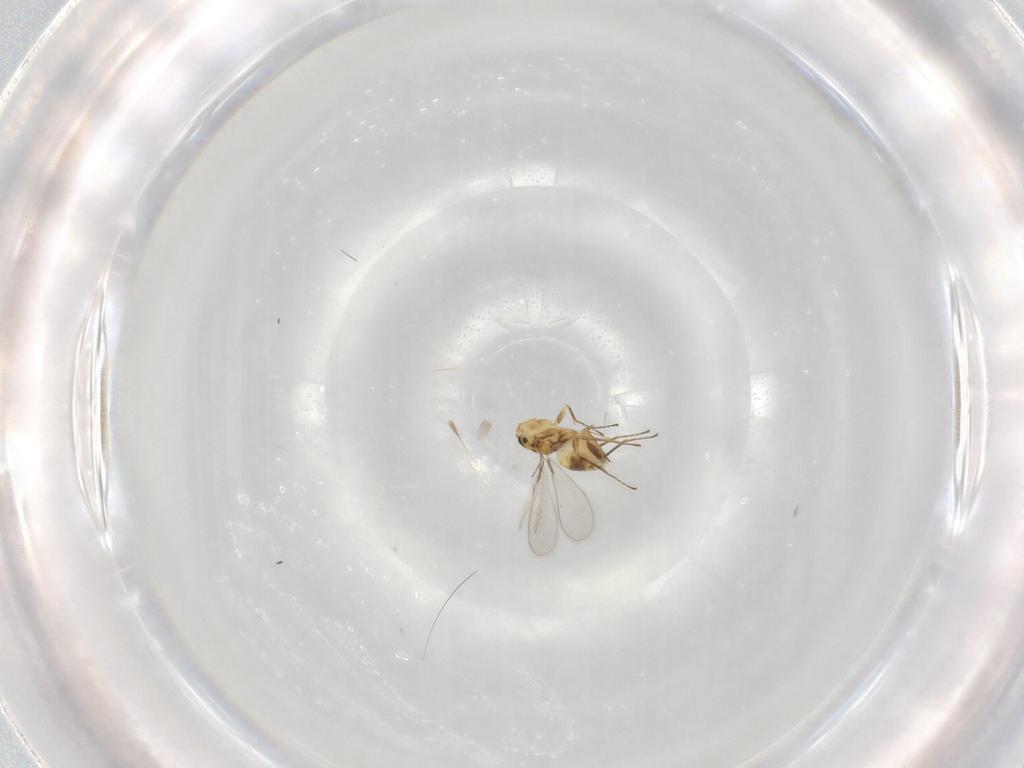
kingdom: Animalia
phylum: Arthropoda
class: Insecta
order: Hymenoptera
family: Mymaridae
